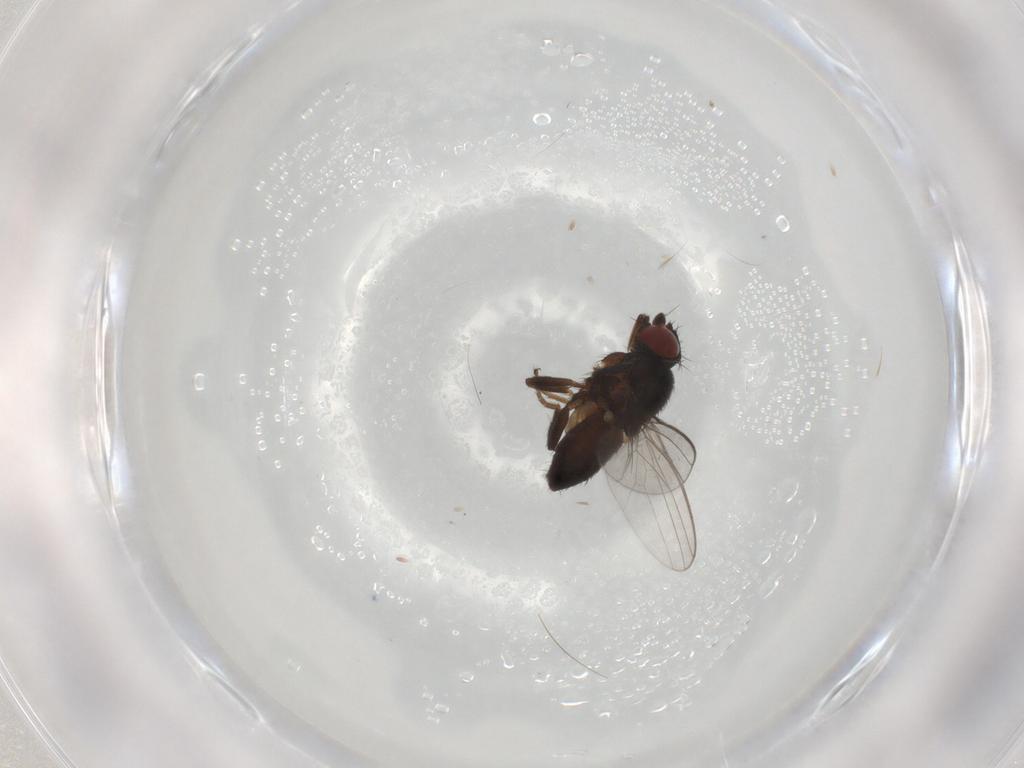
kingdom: Animalia
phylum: Arthropoda
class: Insecta
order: Diptera
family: Milichiidae
